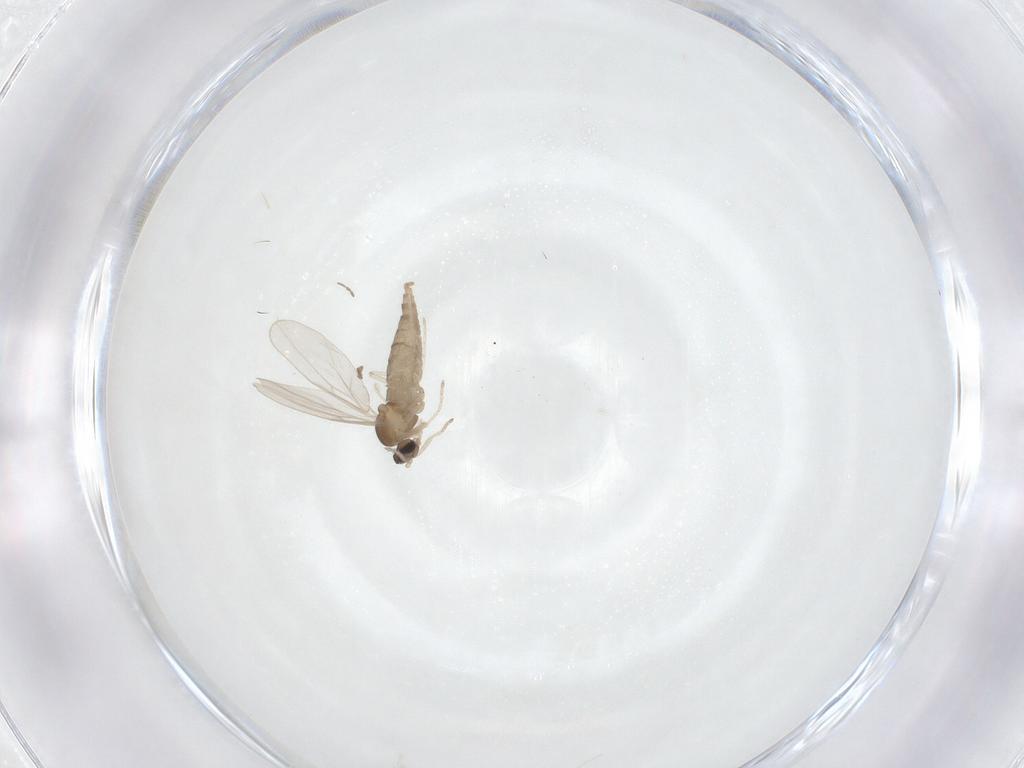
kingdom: Animalia
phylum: Arthropoda
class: Insecta
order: Diptera
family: Cecidomyiidae
